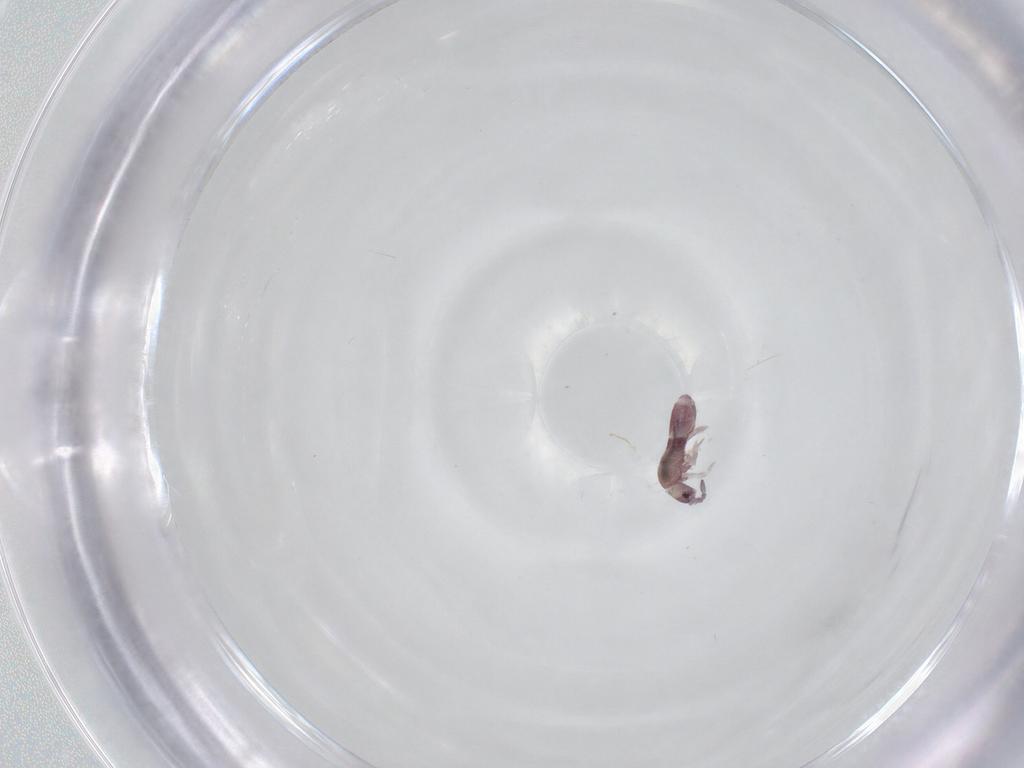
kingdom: Animalia
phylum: Arthropoda
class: Collembola
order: Entomobryomorpha
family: Entomobryidae
